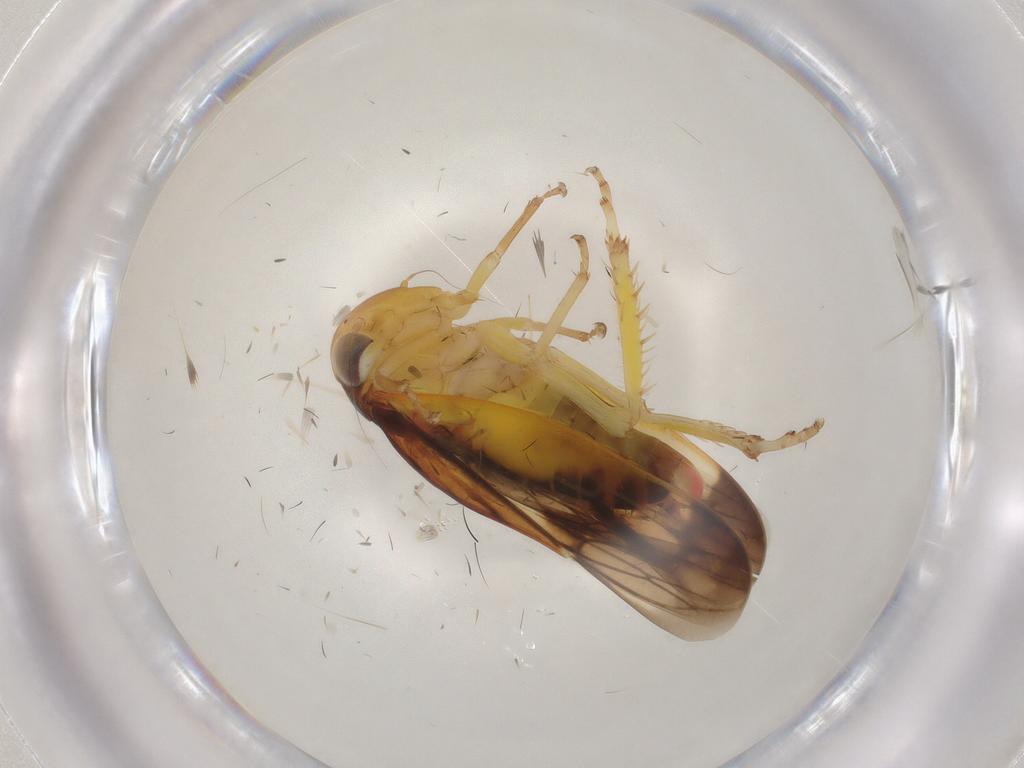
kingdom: Animalia
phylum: Arthropoda
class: Insecta
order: Hemiptera
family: Cicadellidae
